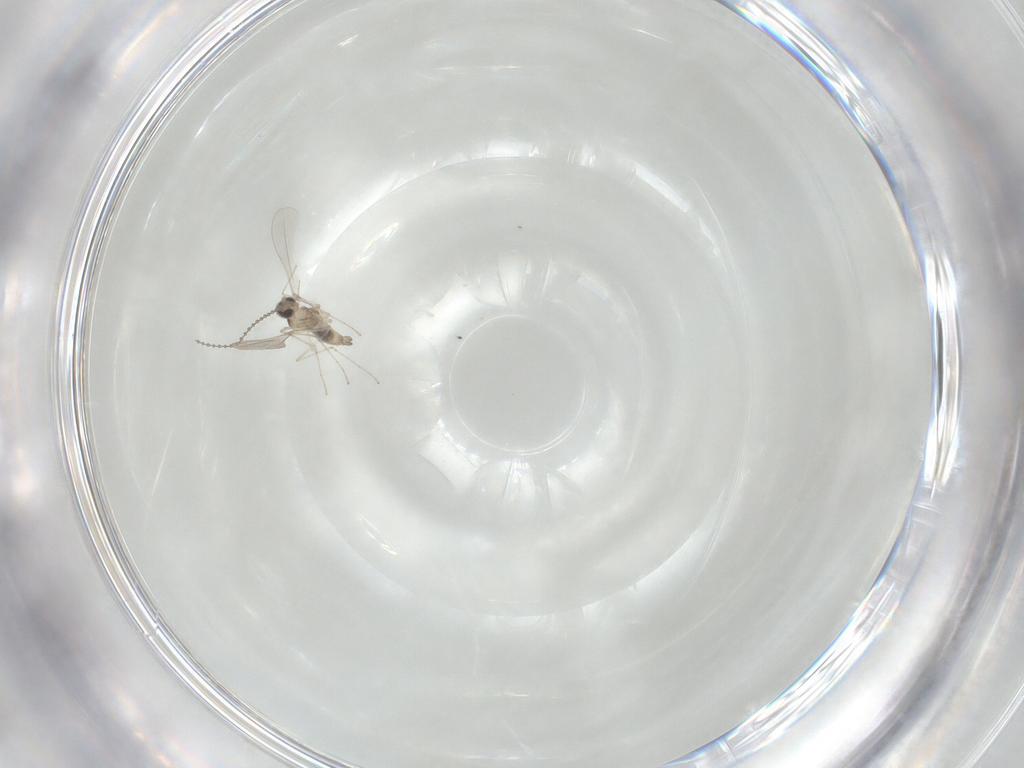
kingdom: Animalia
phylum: Arthropoda
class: Insecta
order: Diptera
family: Cecidomyiidae
